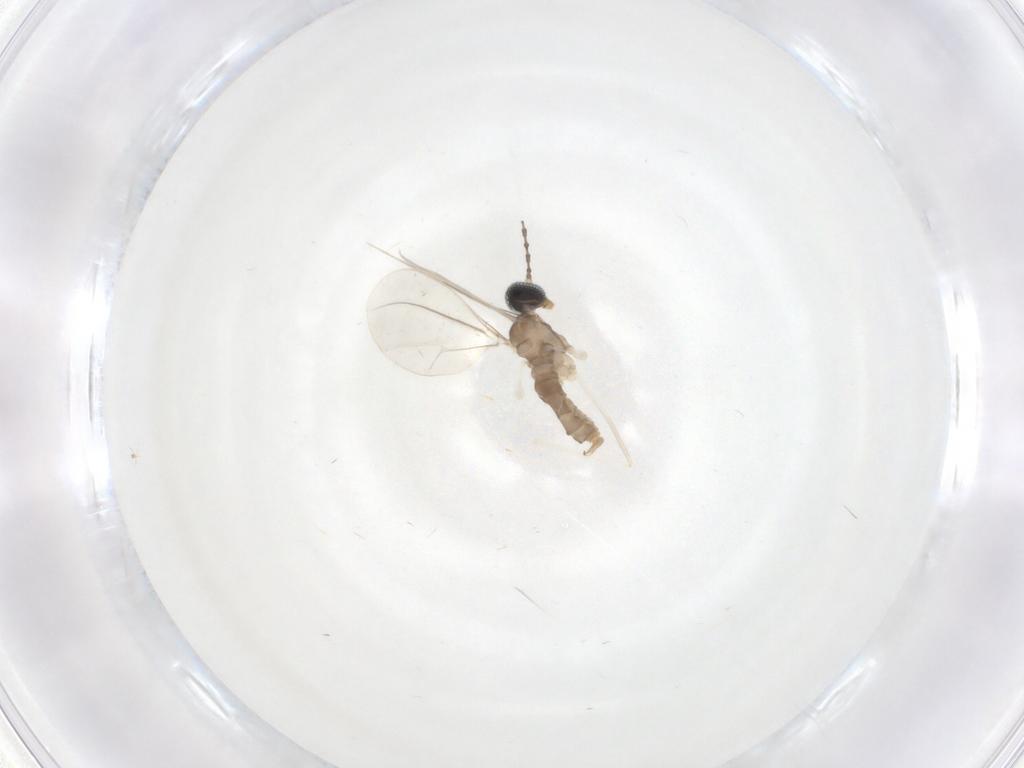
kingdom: Animalia
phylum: Arthropoda
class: Insecta
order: Diptera
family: Cecidomyiidae
